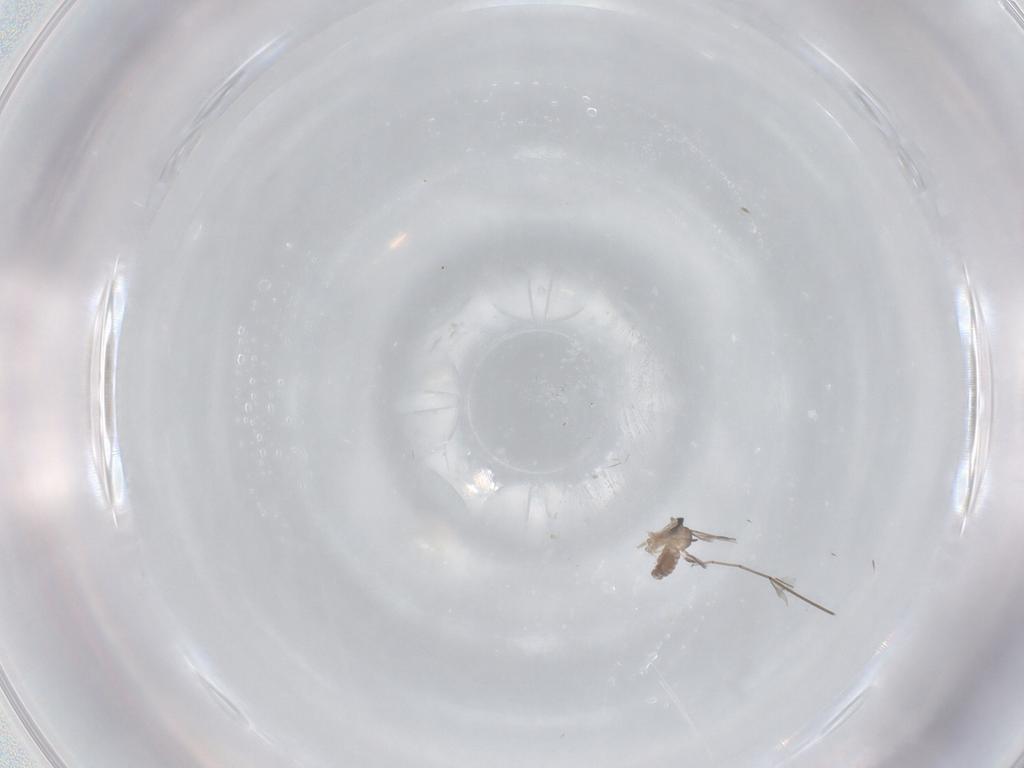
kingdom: Animalia
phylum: Arthropoda
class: Insecta
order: Diptera
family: Cecidomyiidae
